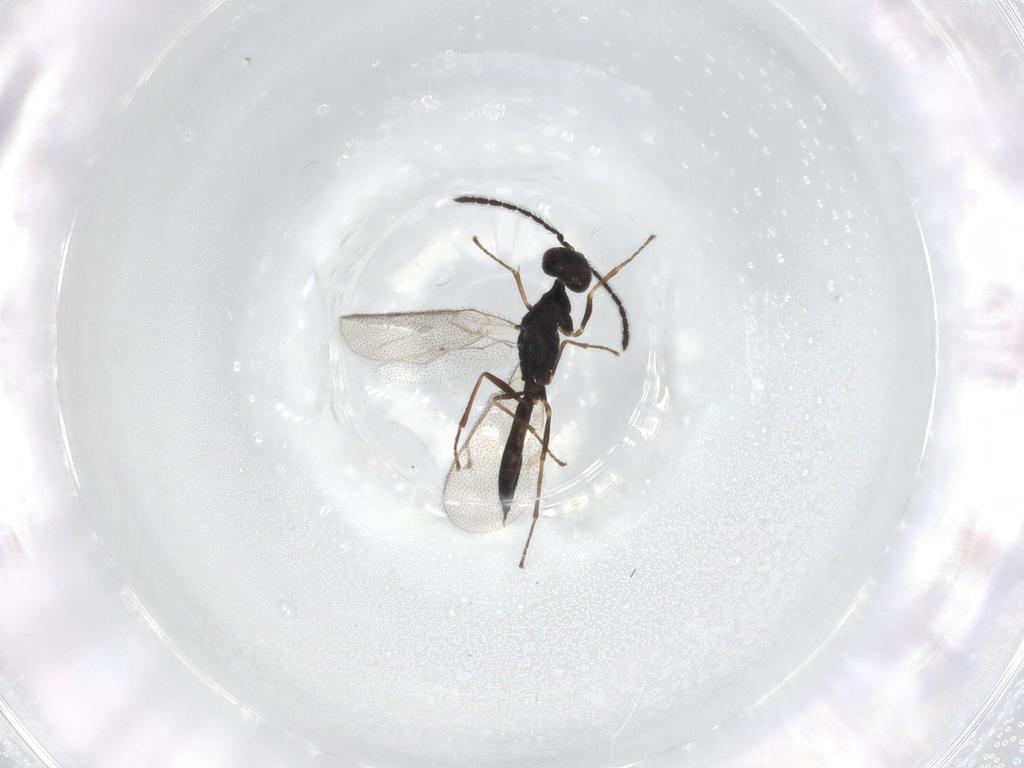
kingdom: Animalia
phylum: Arthropoda
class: Insecta
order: Hymenoptera
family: Pteromalidae
